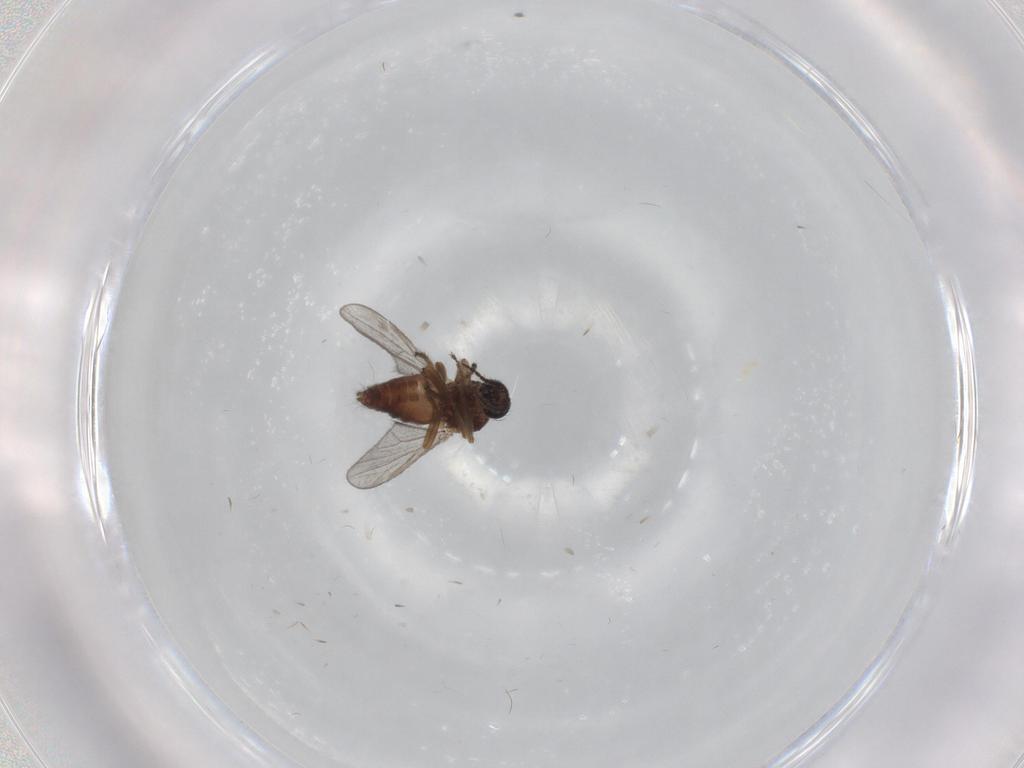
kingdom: Animalia
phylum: Arthropoda
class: Insecta
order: Diptera
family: Ceratopogonidae
